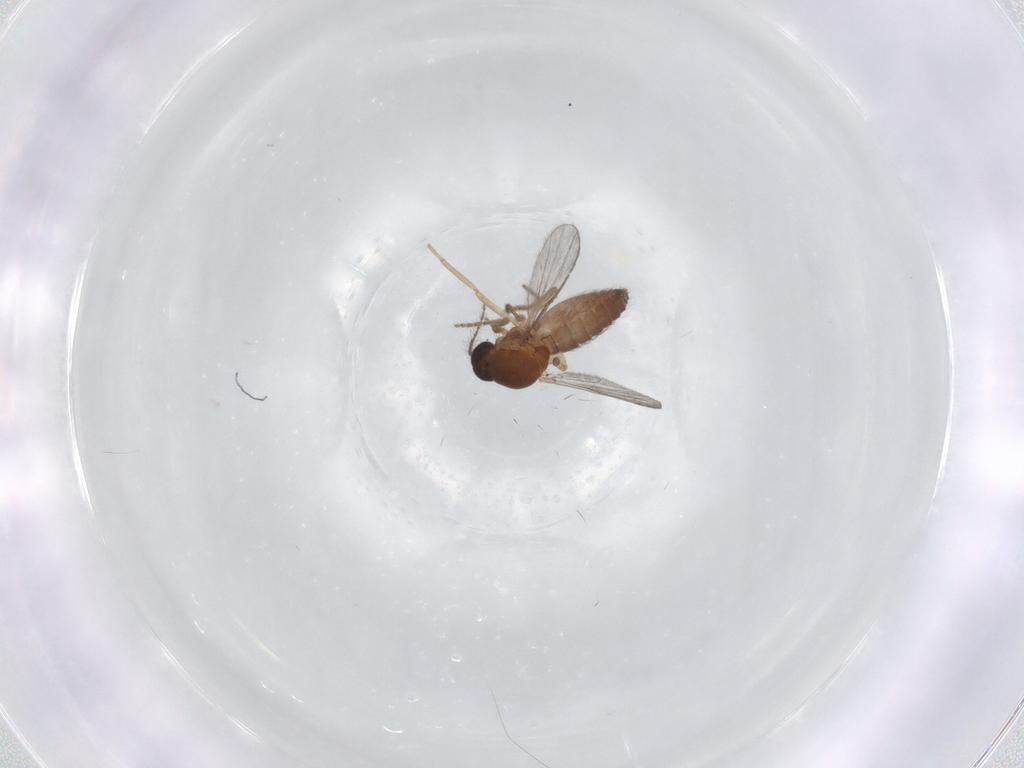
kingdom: Animalia
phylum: Arthropoda
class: Insecta
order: Diptera
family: Ceratopogonidae
